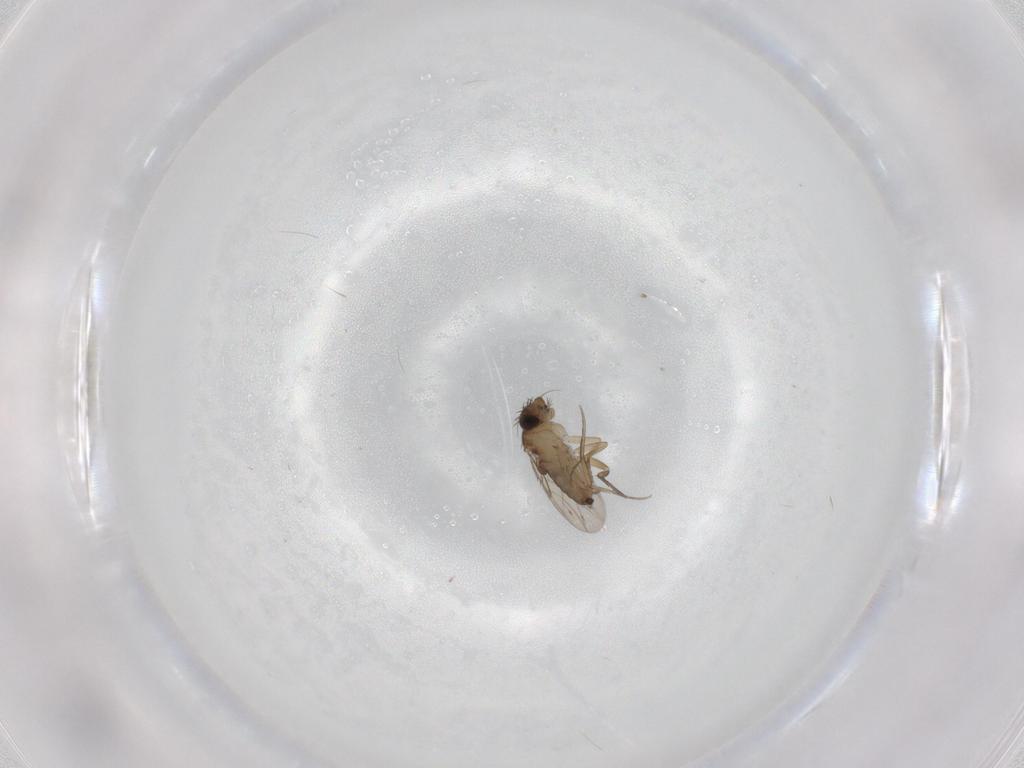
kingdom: Animalia
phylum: Arthropoda
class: Insecta
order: Diptera
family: Phoridae
